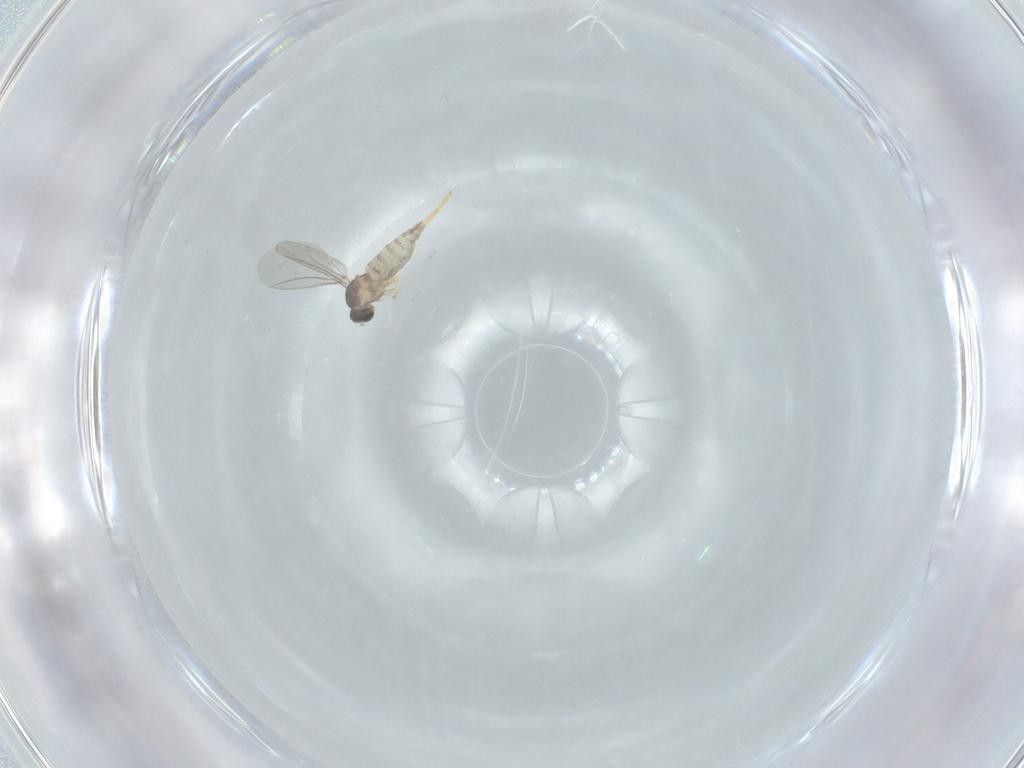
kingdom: Animalia
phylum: Arthropoda
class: Insecta
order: Diptera
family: Cecidomyiidae
